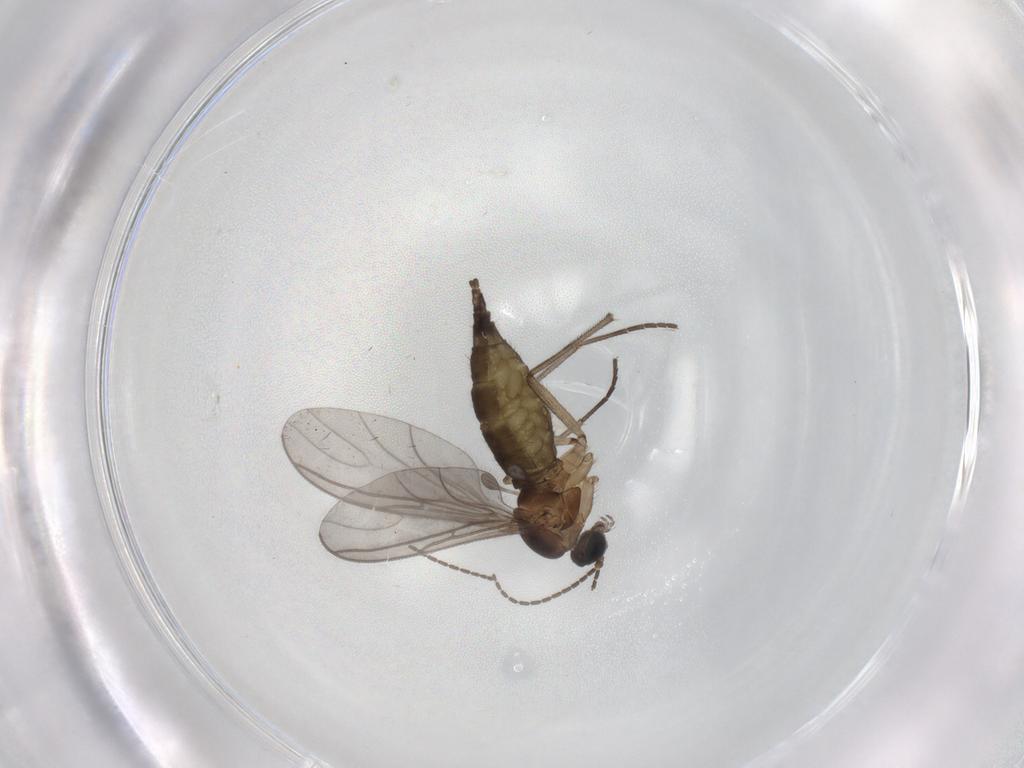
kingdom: Animalia
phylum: Arthropoda
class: Insecta
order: Diptera
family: Sciaridae
